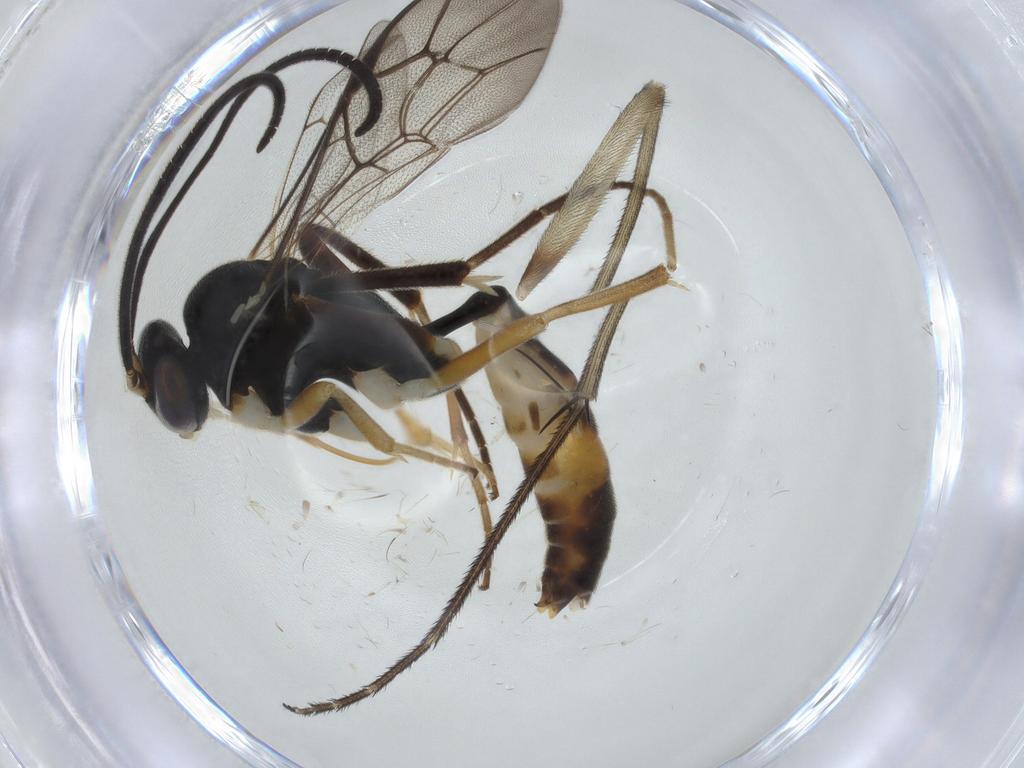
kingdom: Animalia
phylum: Arthropoda
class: Insecta
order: Hymenoptera
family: Ichneumonidae
